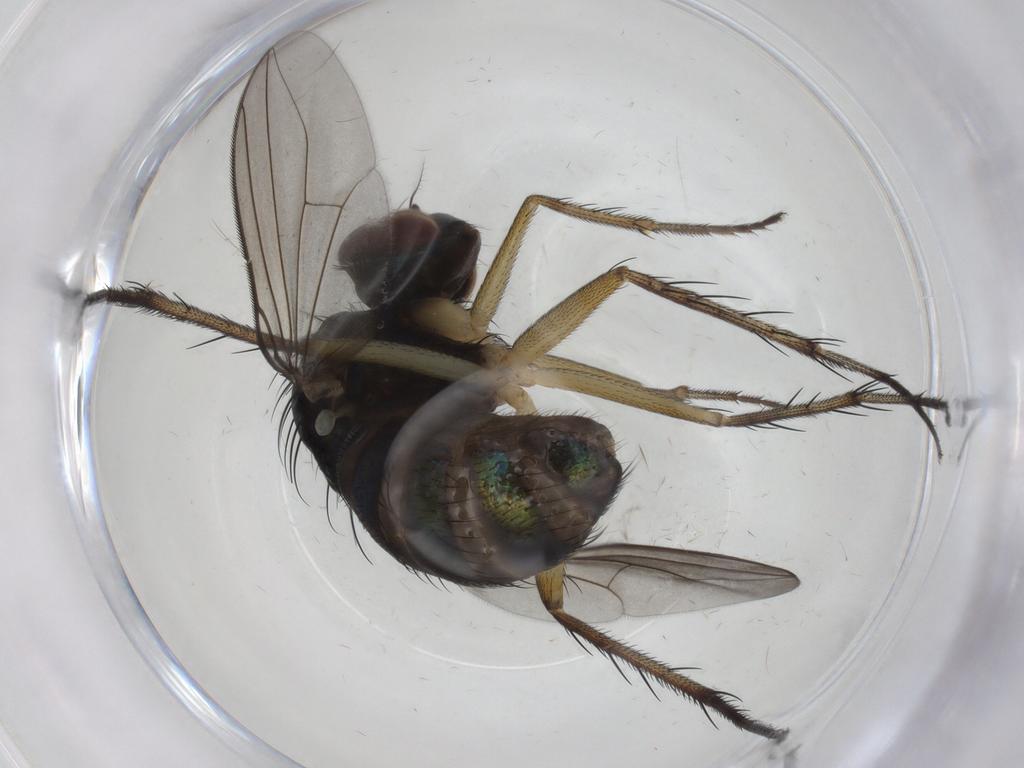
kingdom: Animalia
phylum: Arthropoda
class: Insecta
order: Diptera
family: Dolichopodidae
